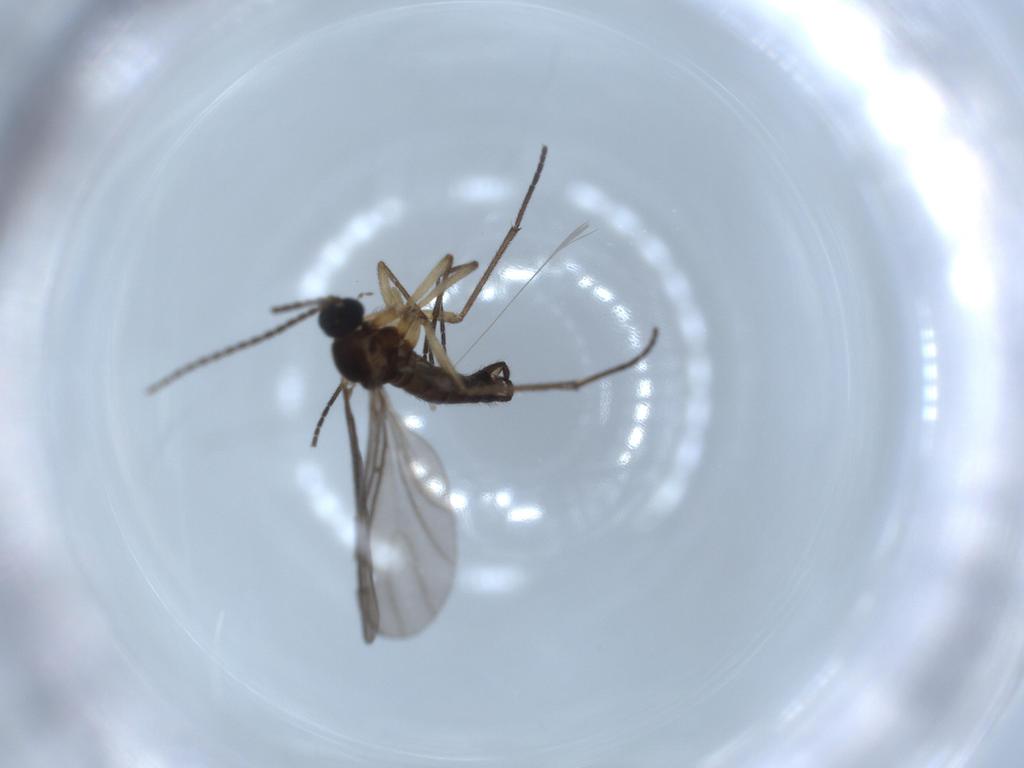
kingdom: Animalia
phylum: Arthropoda
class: Insecta
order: Diptera
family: Sciaridae
